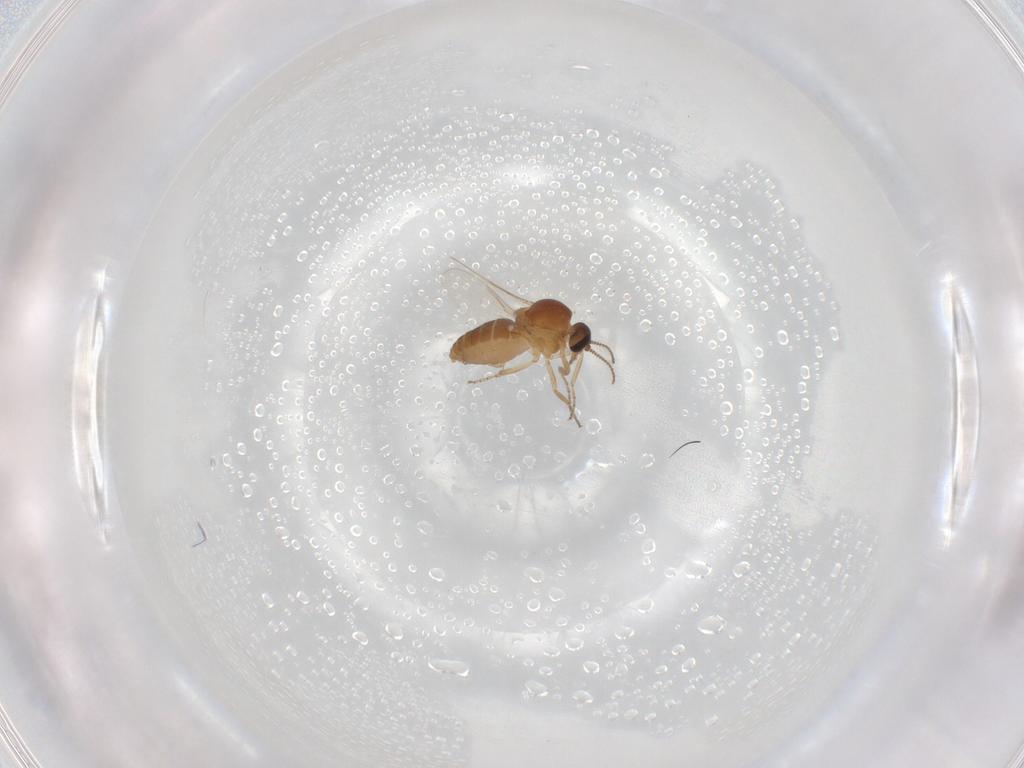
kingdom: Animalia
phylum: Arthropoda
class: Insecta
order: Diptera
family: Ceratopogonidae
